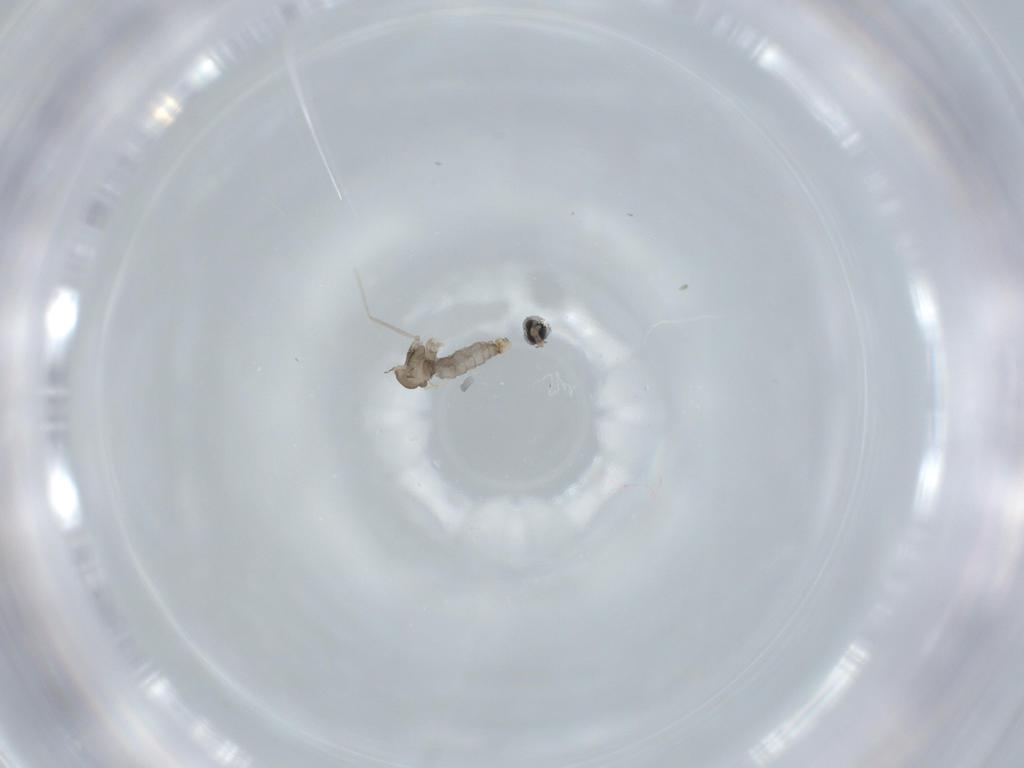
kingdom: Animalia
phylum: Arthropoda
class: Insecta
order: Diptera
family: Cecidomyiidae
